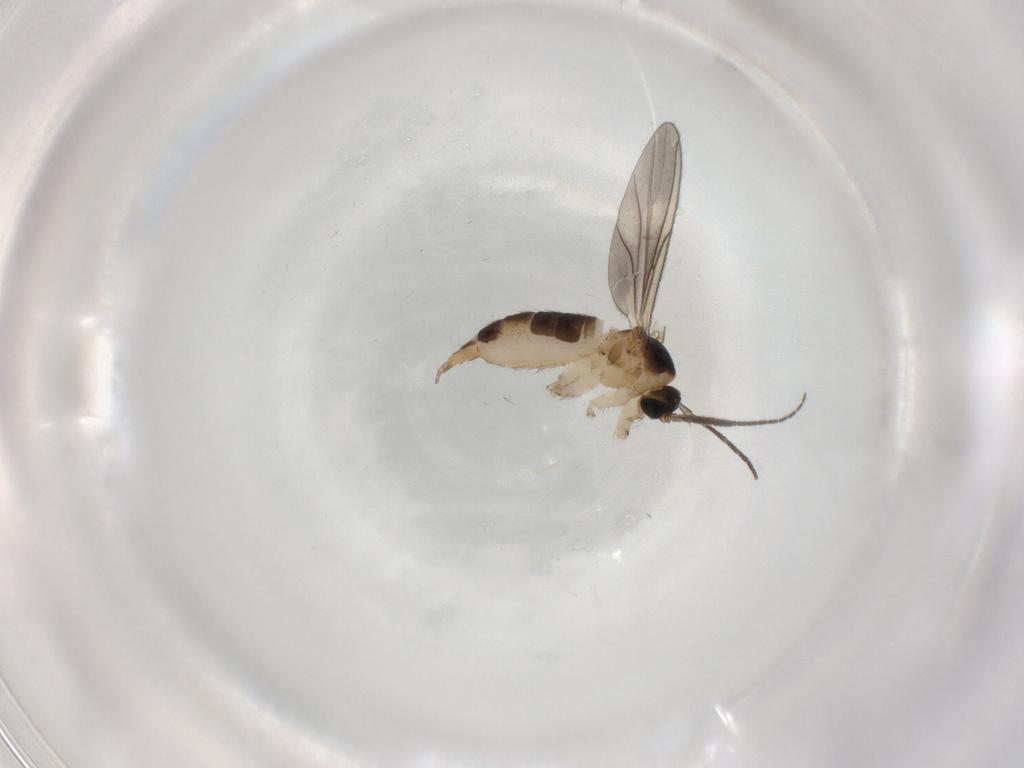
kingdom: Animalia
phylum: Arthropoda
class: Insecta
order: Diptera
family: Sciaridae
